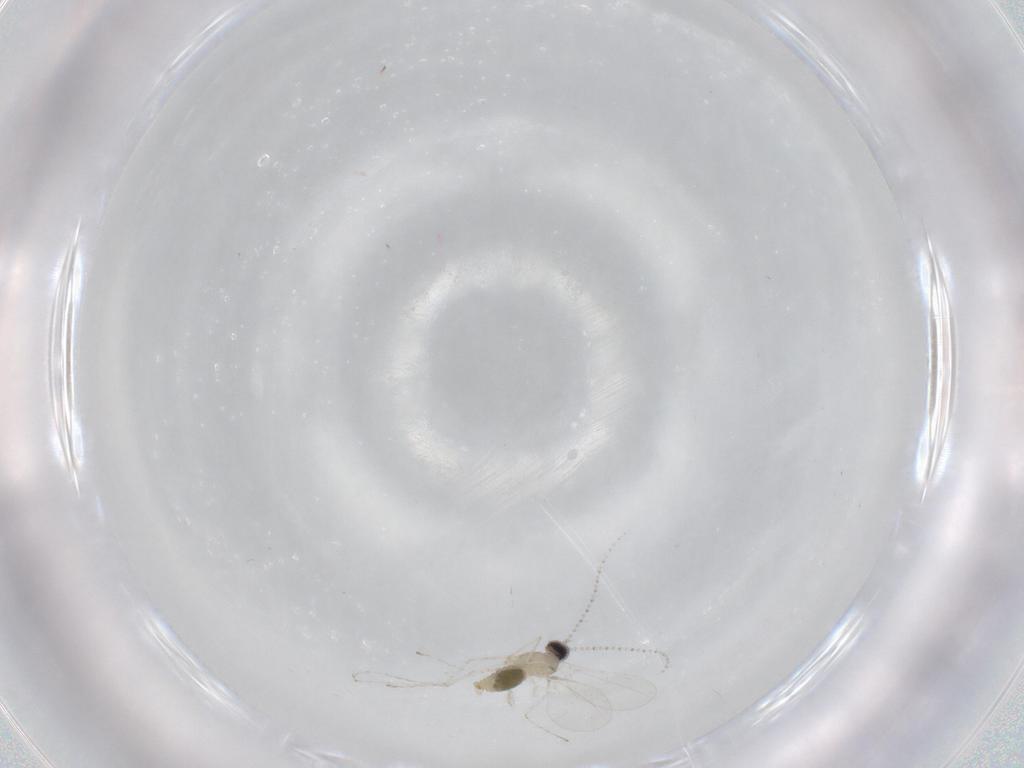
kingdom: Animalia
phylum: Arthropoda
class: Insecta
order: Diptera
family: Cecidomyiidae
